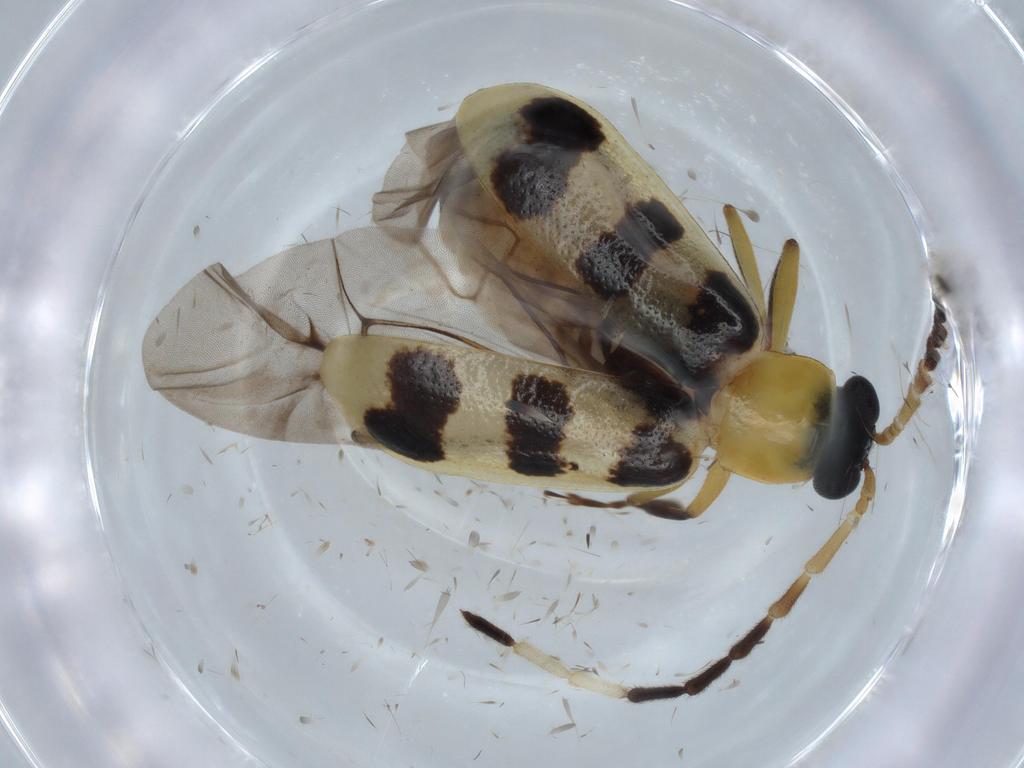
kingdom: Animalia
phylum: Arthropoda
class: Insecta
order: Coleoptera
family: Chrysomelidae
